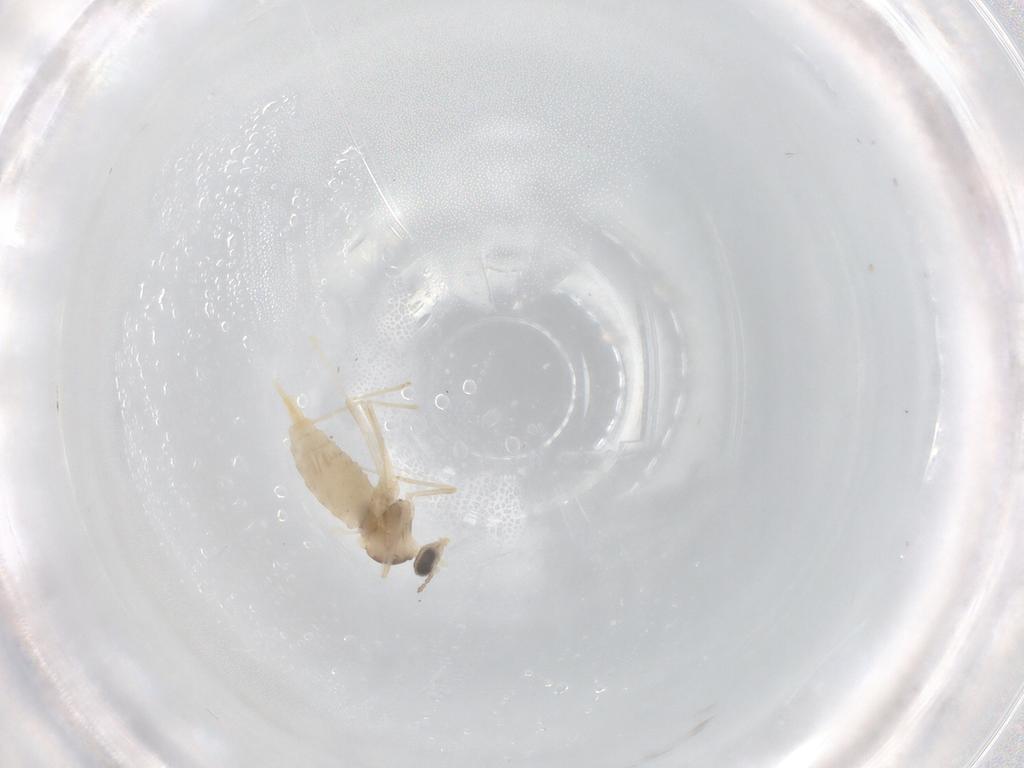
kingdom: Animalia
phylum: Arthropoda
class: Insecta
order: Diptera
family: Cecidomyiidae
